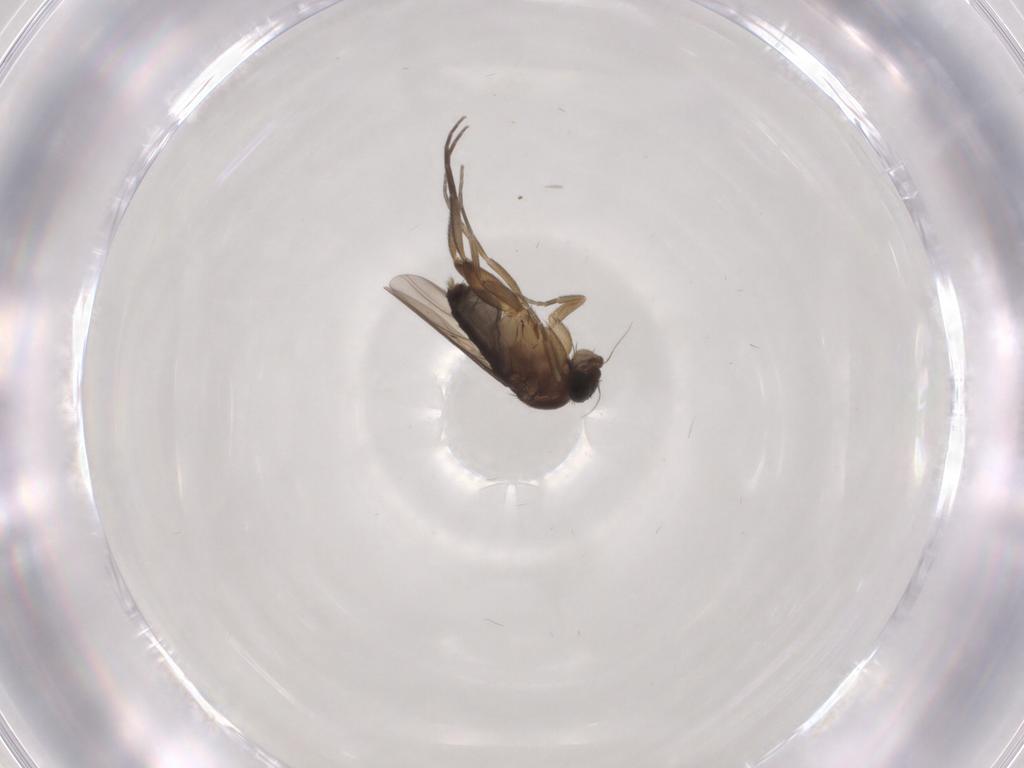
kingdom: Animalia
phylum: Arthropoda
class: Insecta
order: Diptera
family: Phoridae
